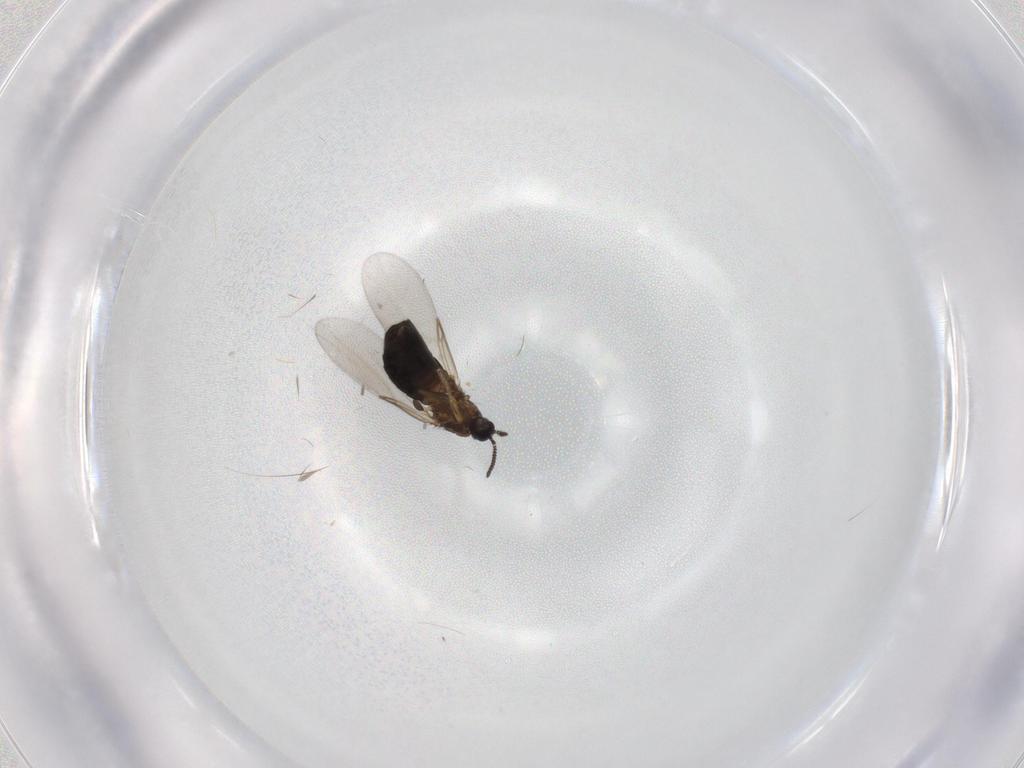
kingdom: Animalia
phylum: Arthropoda
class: Insecta
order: Diptera
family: Scatopsidae
